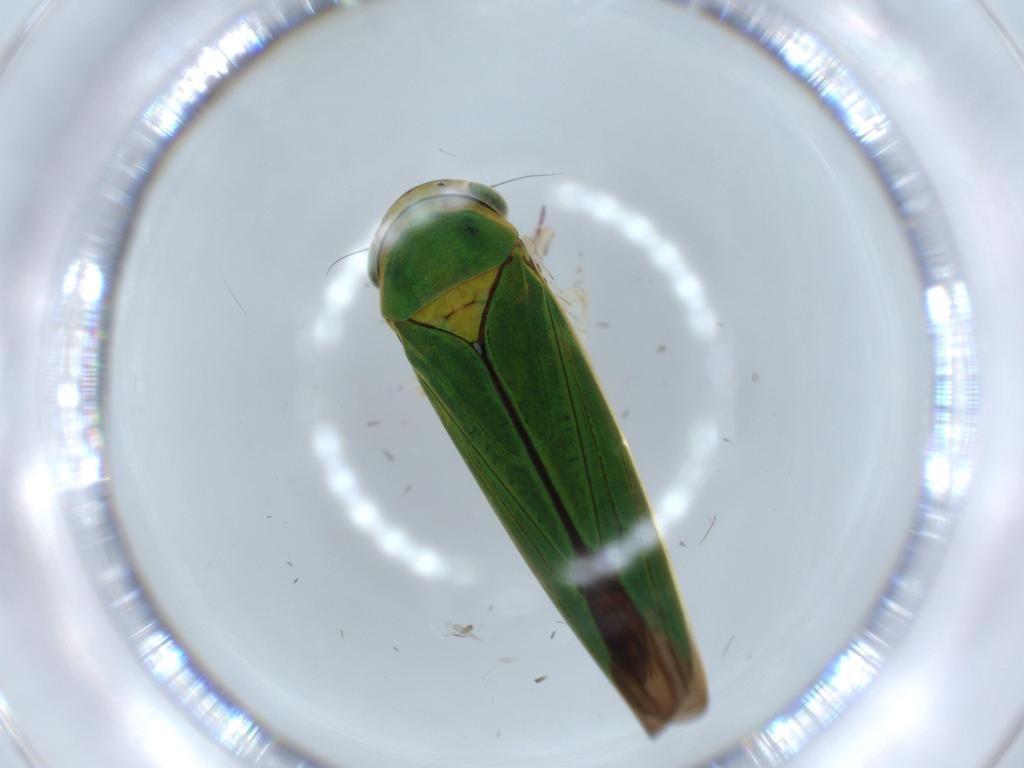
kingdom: Animalia
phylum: Arthropoda
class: Insecta
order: Hemiptera
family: Cicadellidae
